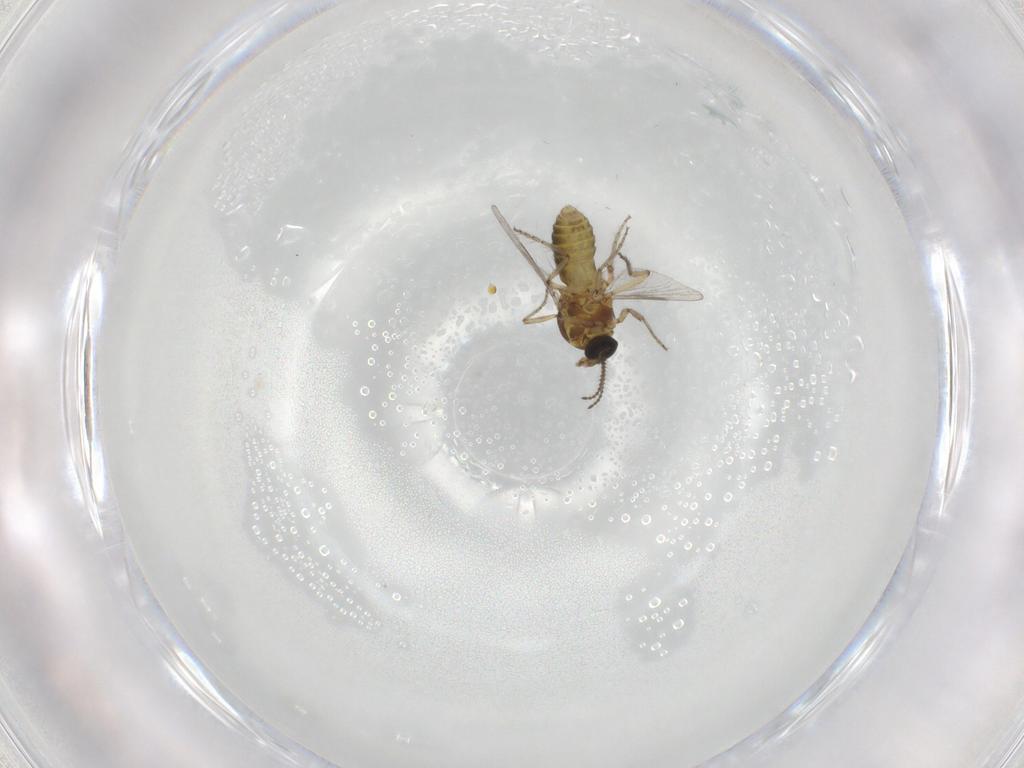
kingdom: Animalia
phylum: Arthropoda
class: Insecta
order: Diptera
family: Ceratopogonidae
